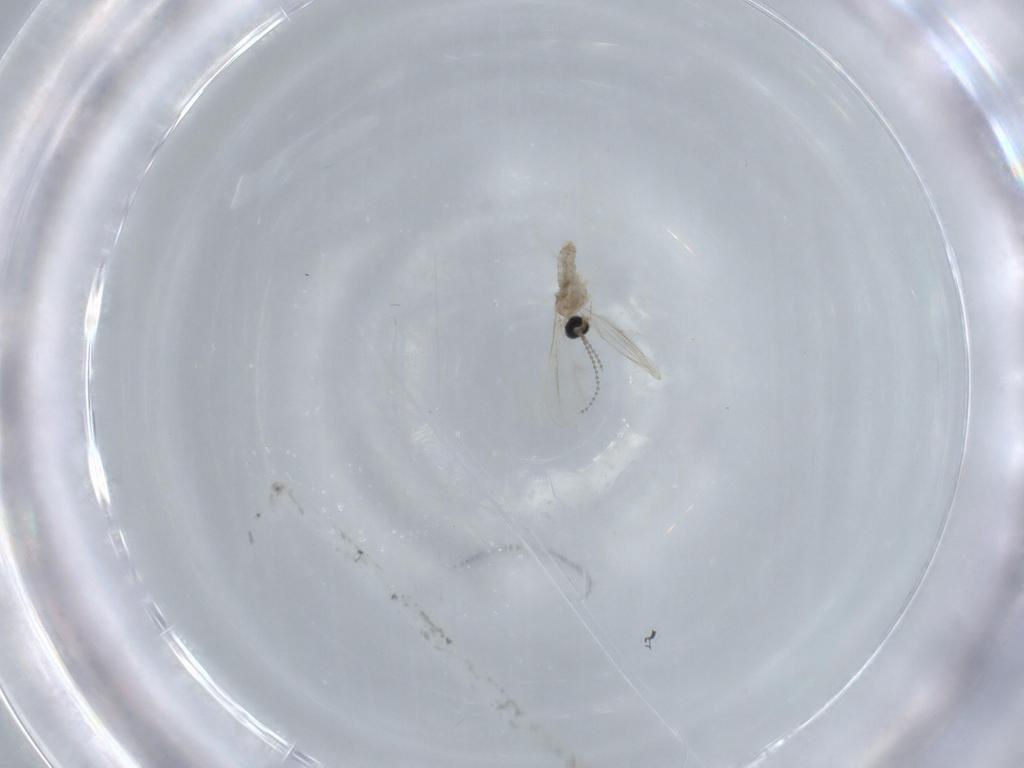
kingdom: Animalia
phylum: Arthropoda
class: Insecta
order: Diptera
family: Cecidomyiidae
